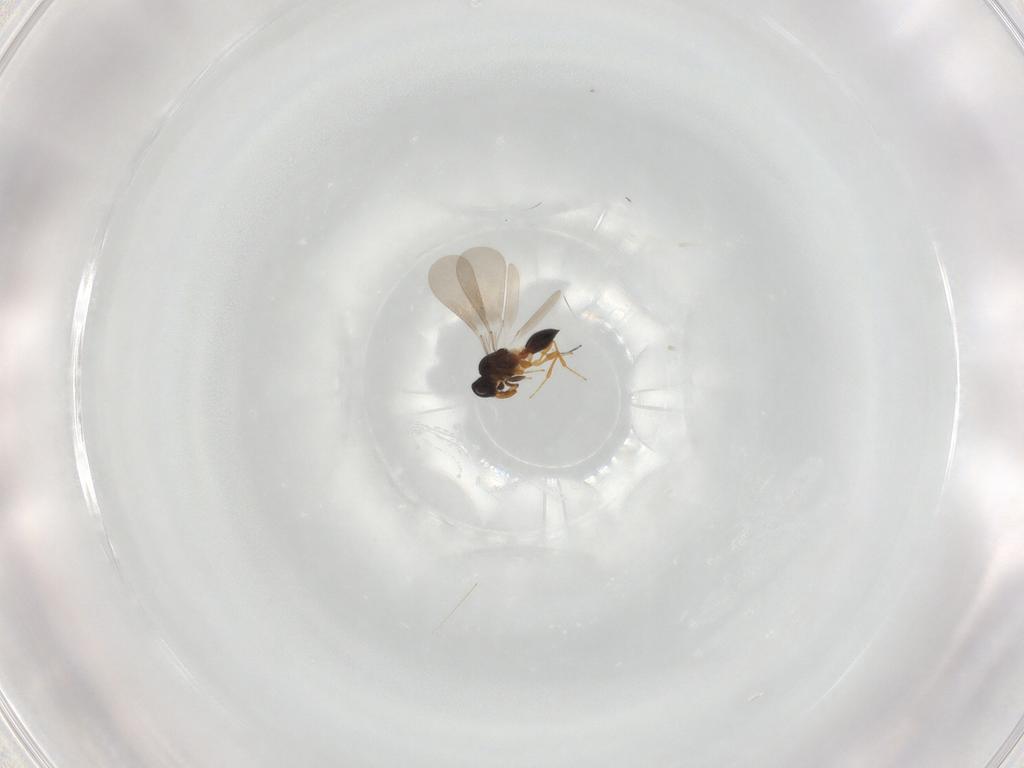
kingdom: Animalia
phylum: Arthropoda
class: Insecta
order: Hymenoptera
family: Platygastridae
